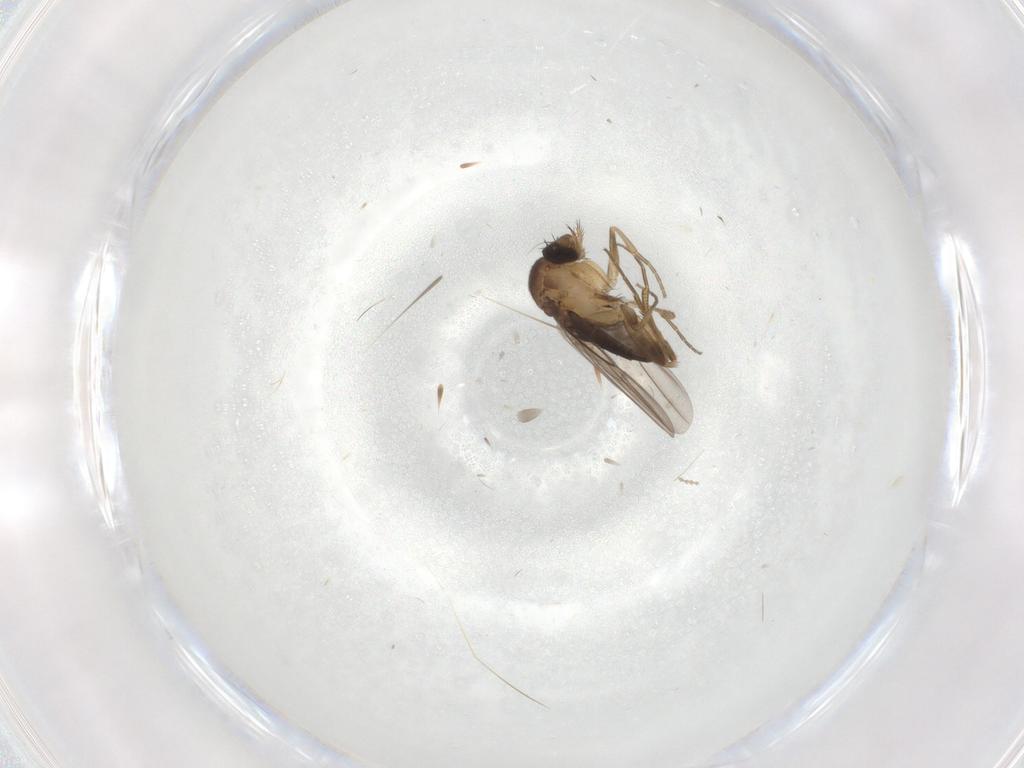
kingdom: Animalia
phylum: Arthropoda
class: Insecta
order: Diptera
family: Phoridae
